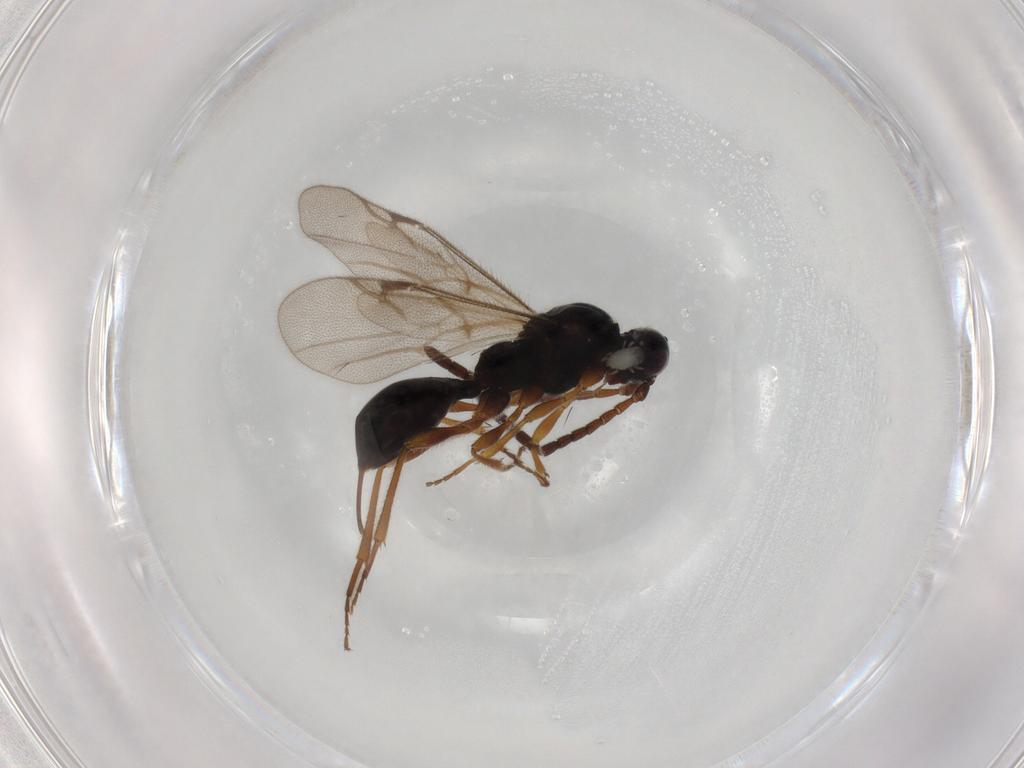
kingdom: Animalia
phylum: Arthropoda
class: Insecta
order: Hymenoptera
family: Proctotrupidae
